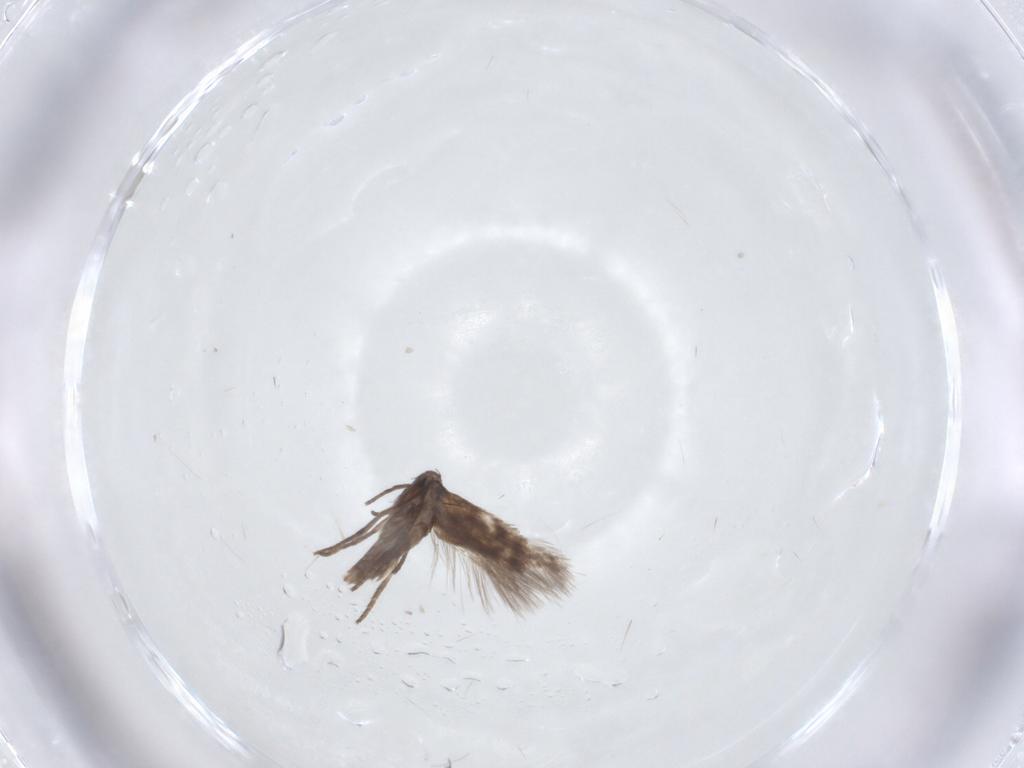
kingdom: Animalia
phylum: Arthropoda
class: Insecta
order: Lepidoptera
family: Lyonetiidae
